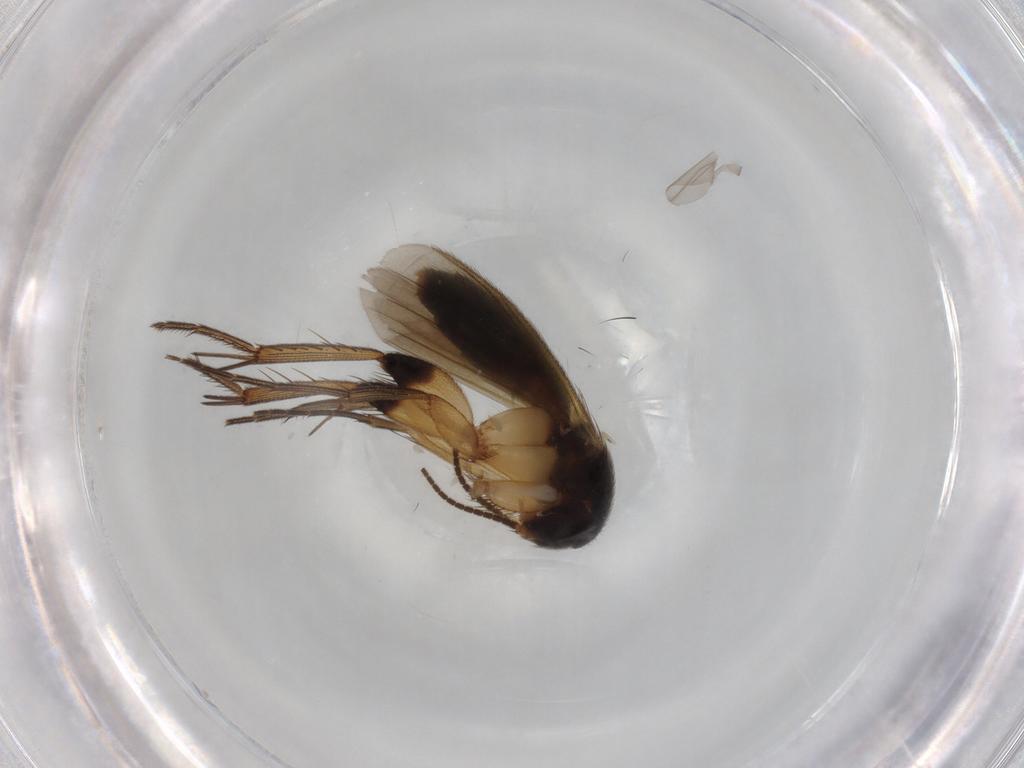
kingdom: Animalia
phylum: Arthropoda
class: Insecta
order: Diptera
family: Sarcophagidae
